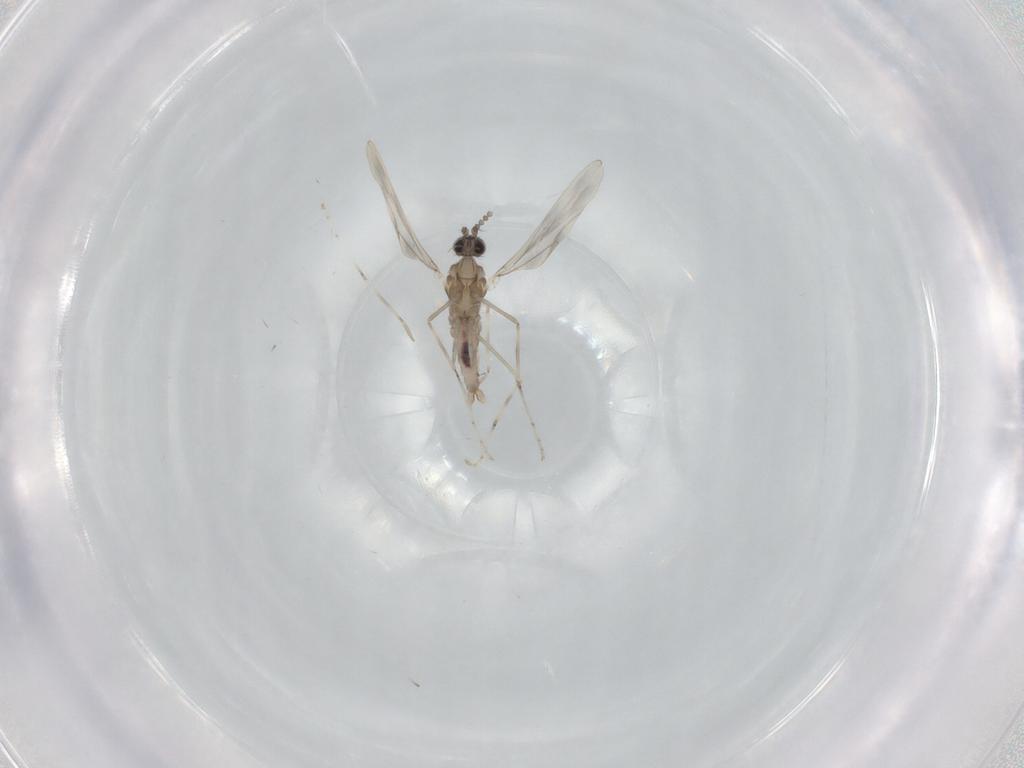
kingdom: Animalia
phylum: Arthropoda
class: Insecta
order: Diptera
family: Cecidomyiidae
